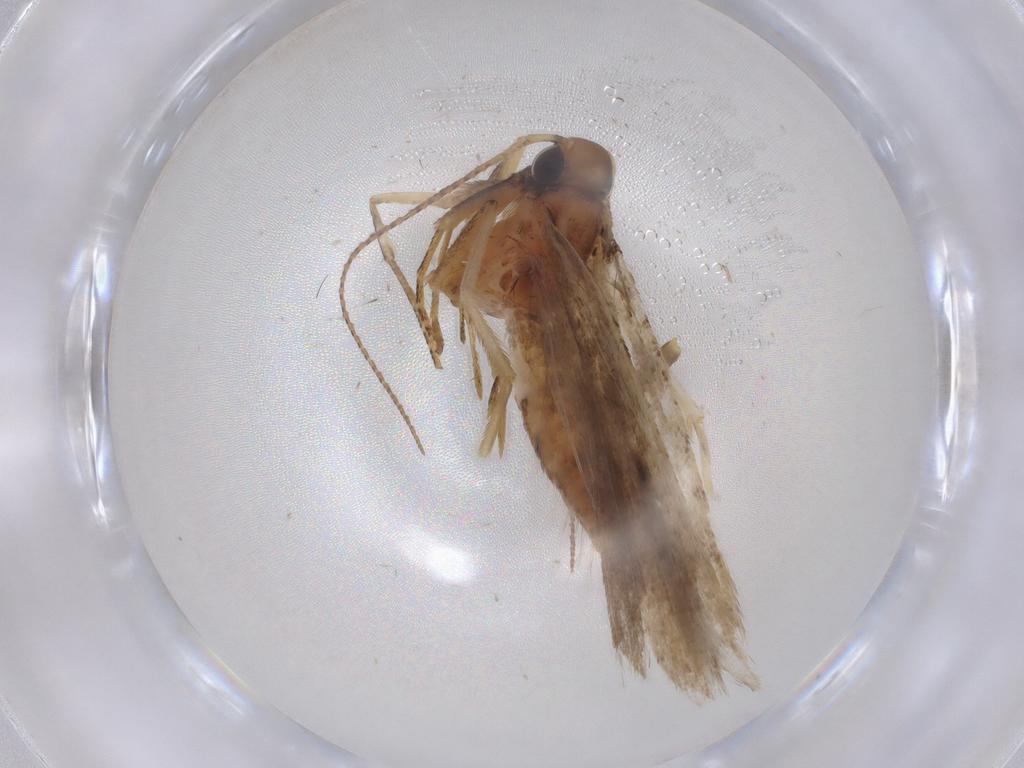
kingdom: Animalia
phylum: Arthropoda
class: Insecta
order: Lepidoptera
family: Gelechiidae
